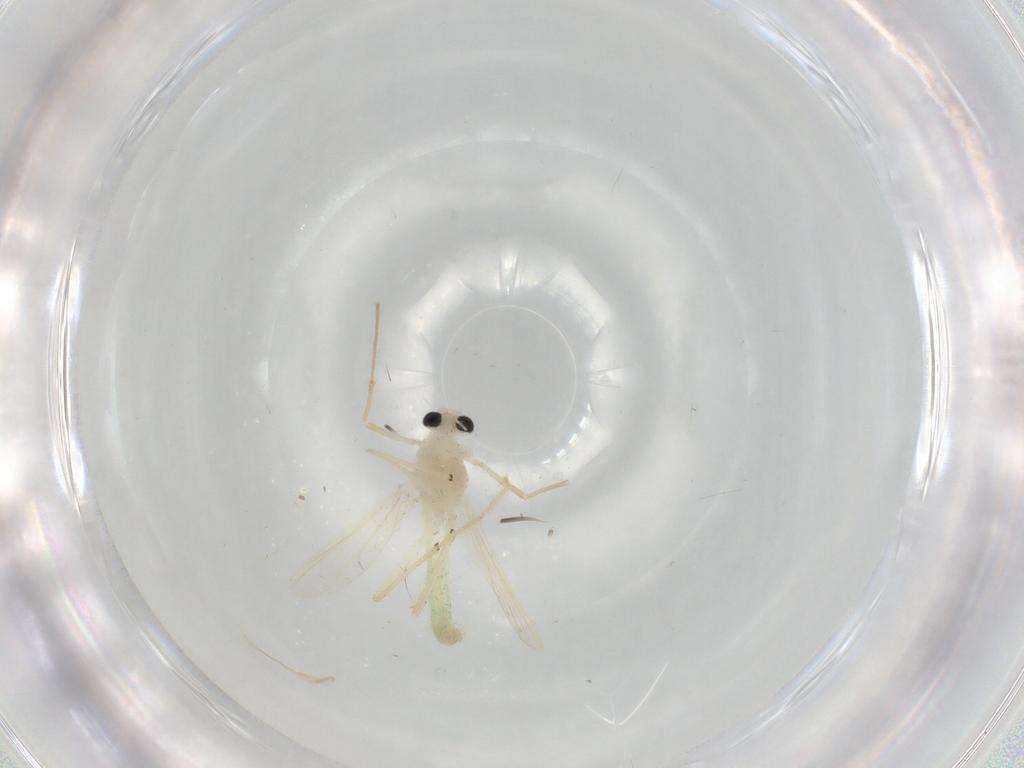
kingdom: Animalia
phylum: Arthropoda
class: Insecta
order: Diptera
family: Chironomidae
